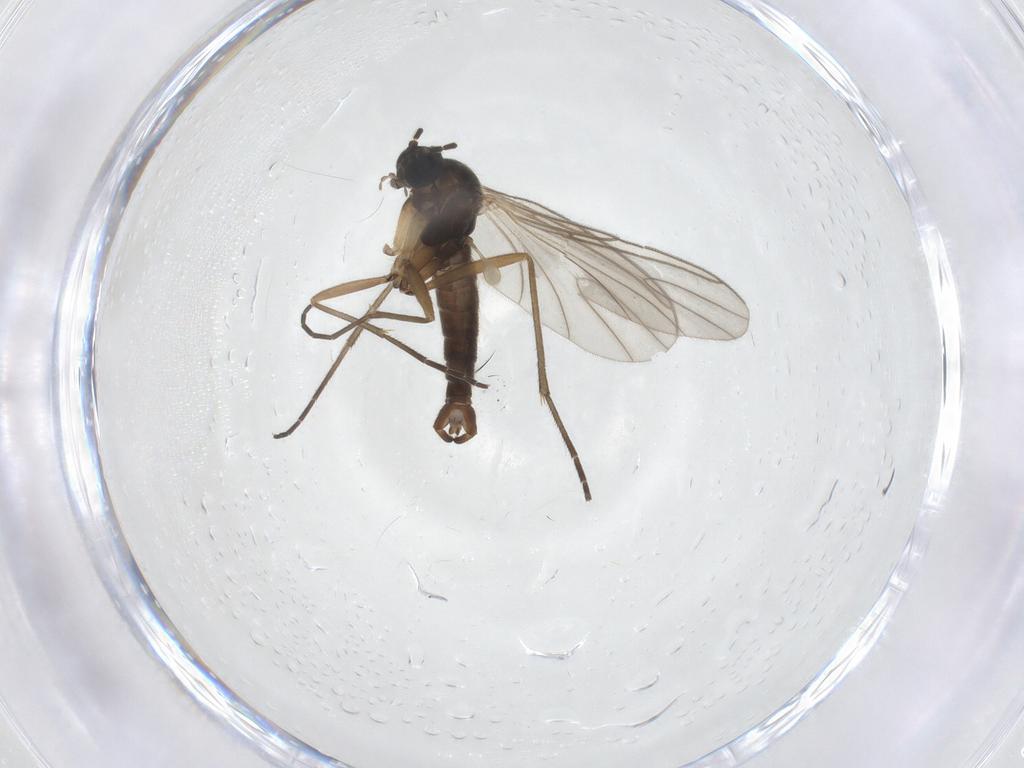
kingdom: Animalia
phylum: Arthropoda
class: Insecta
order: Diptera
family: Sciaridae
